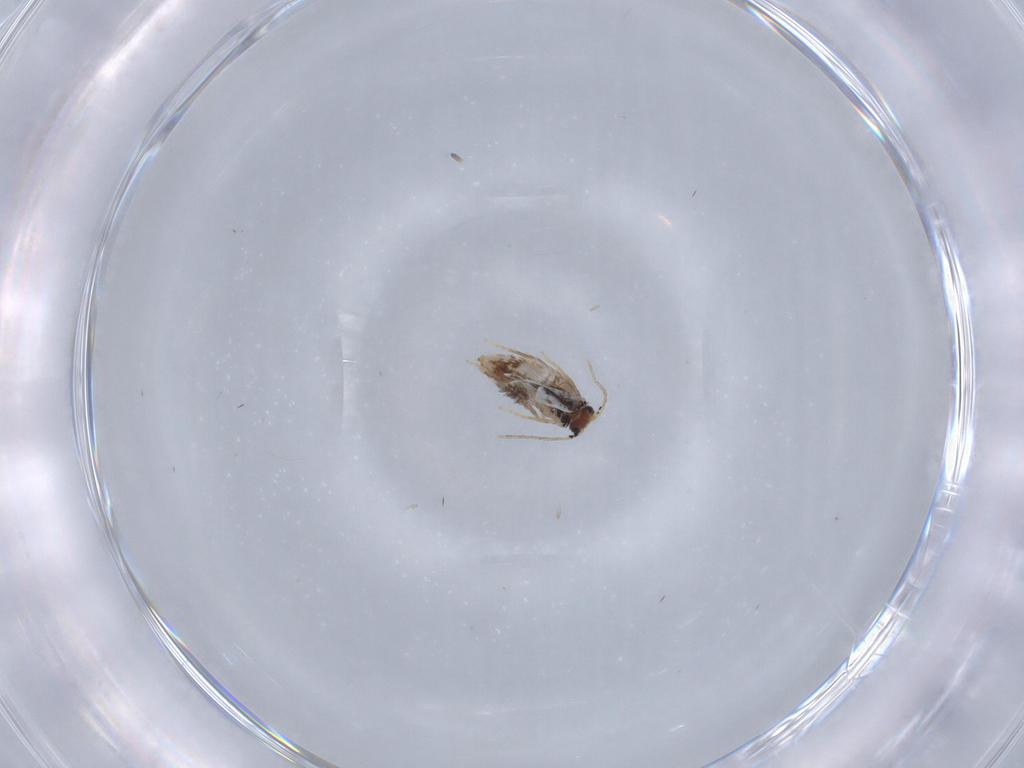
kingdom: Animalia
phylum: Arthropoda
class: Insecta
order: Lepidoptera
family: Nepticulidae
